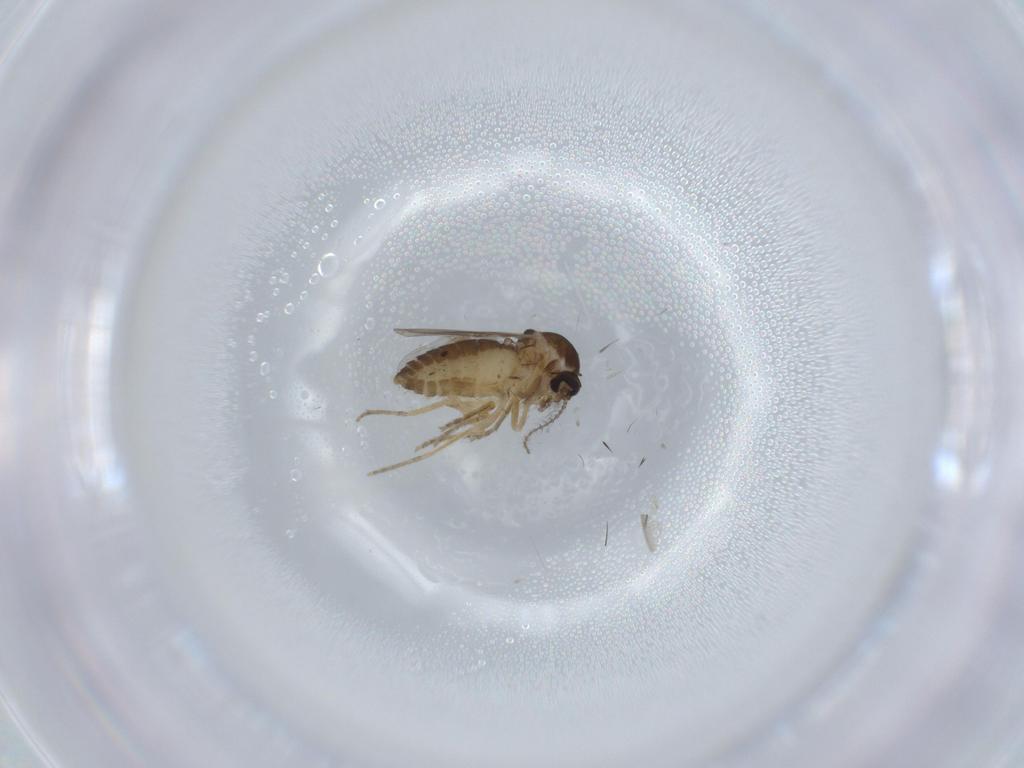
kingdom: Animalia
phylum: Arthropoda
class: Insecta
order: Diptera
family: Ceratopogonidae
